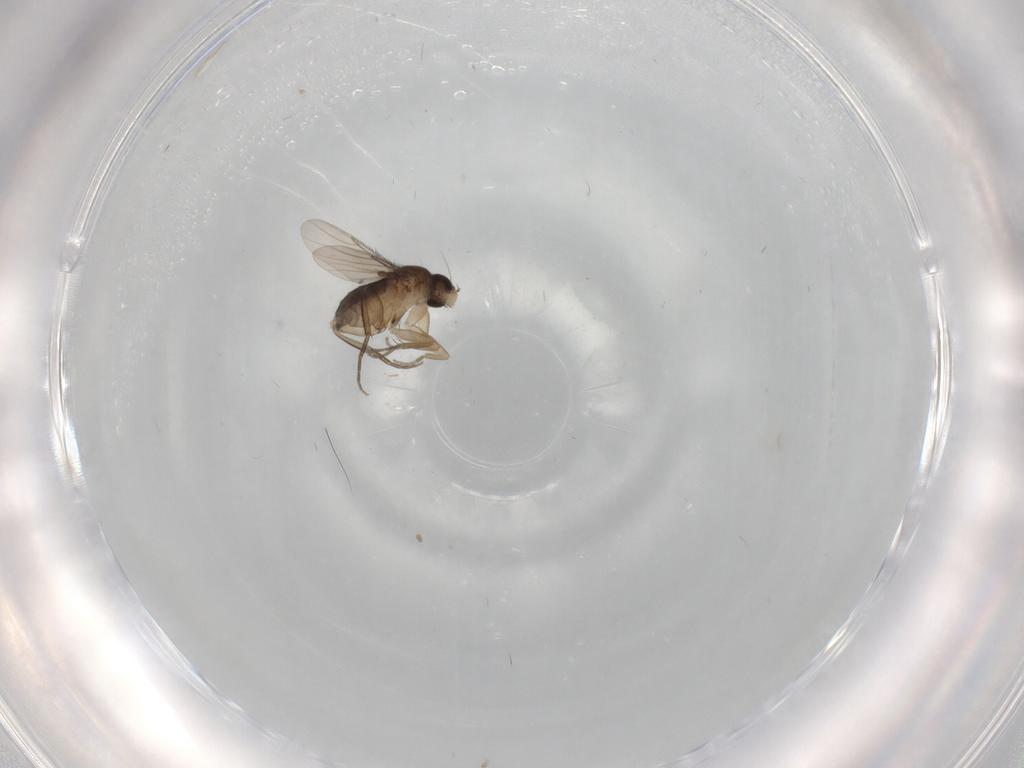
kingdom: Animalia
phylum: Arthropoda
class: Insecta
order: Diptera
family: Phoridae
